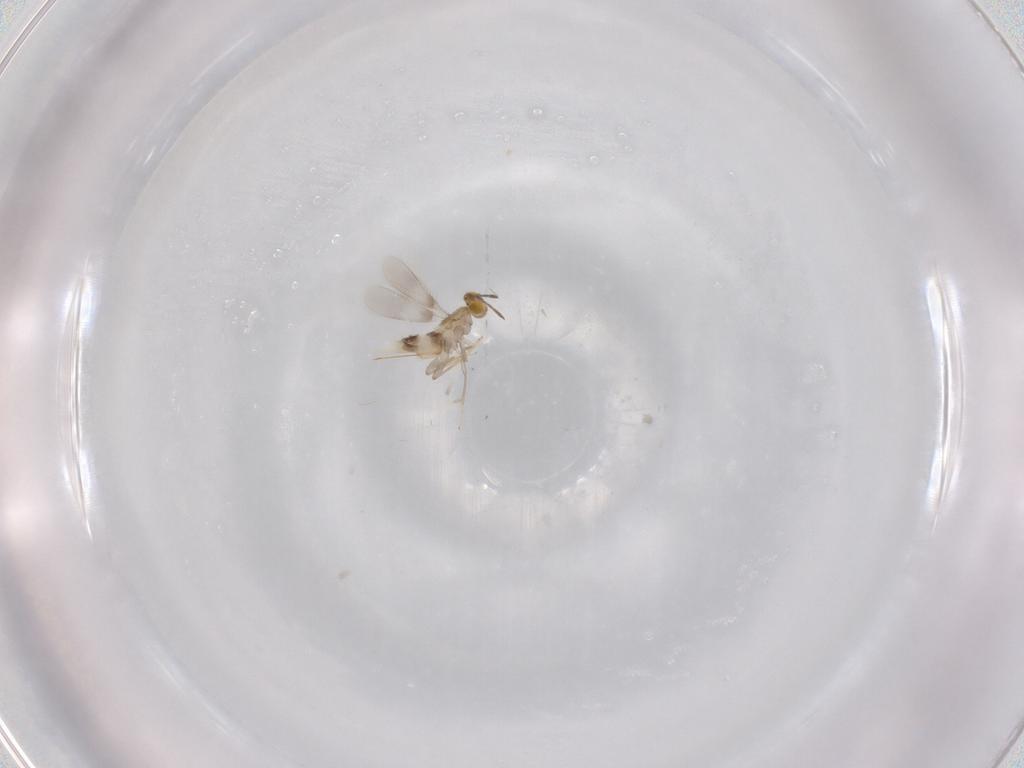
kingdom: Animalia
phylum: Arthropoda
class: Insecta
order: Hymenoptera
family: Aphelinidae
